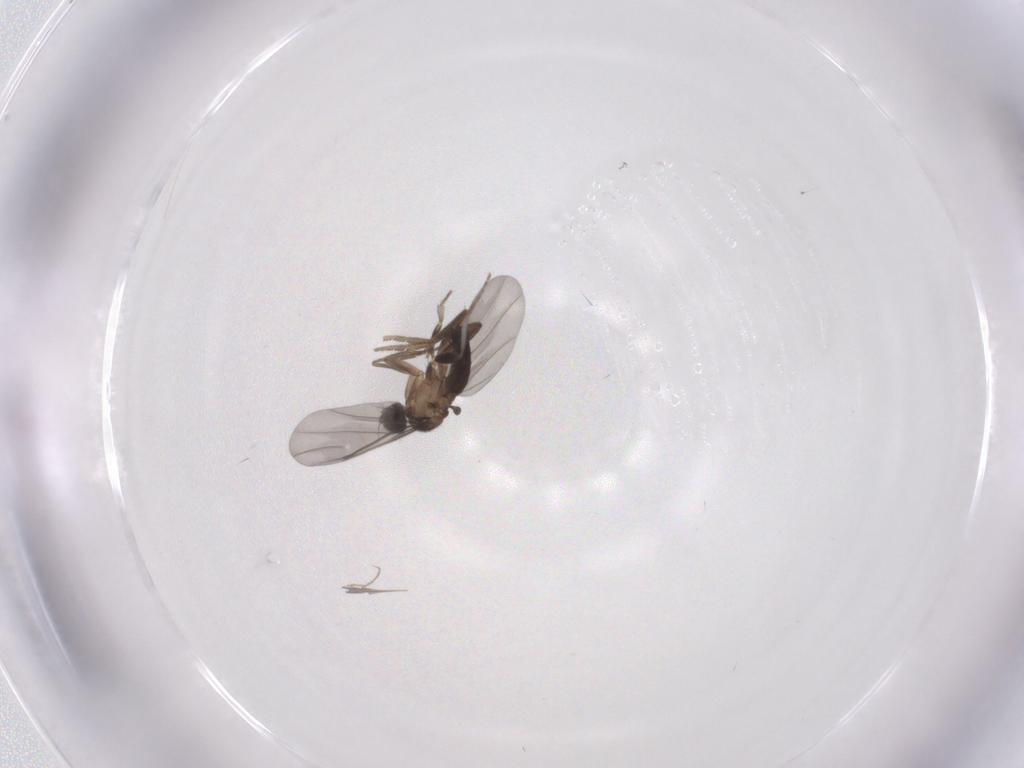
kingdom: Animalia
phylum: Arthropoda
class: Insecta
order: Diptera
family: Phoridae
